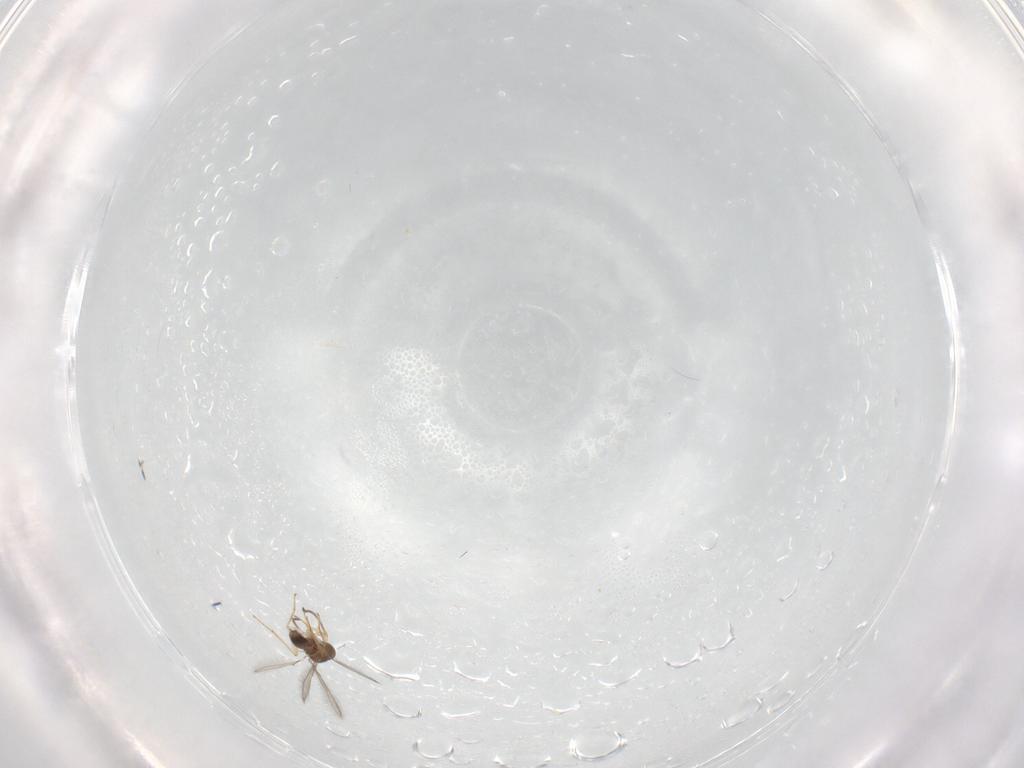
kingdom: Animalia
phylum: Arthropoda
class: Insecta
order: Hymenoptera
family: Mymaridae
